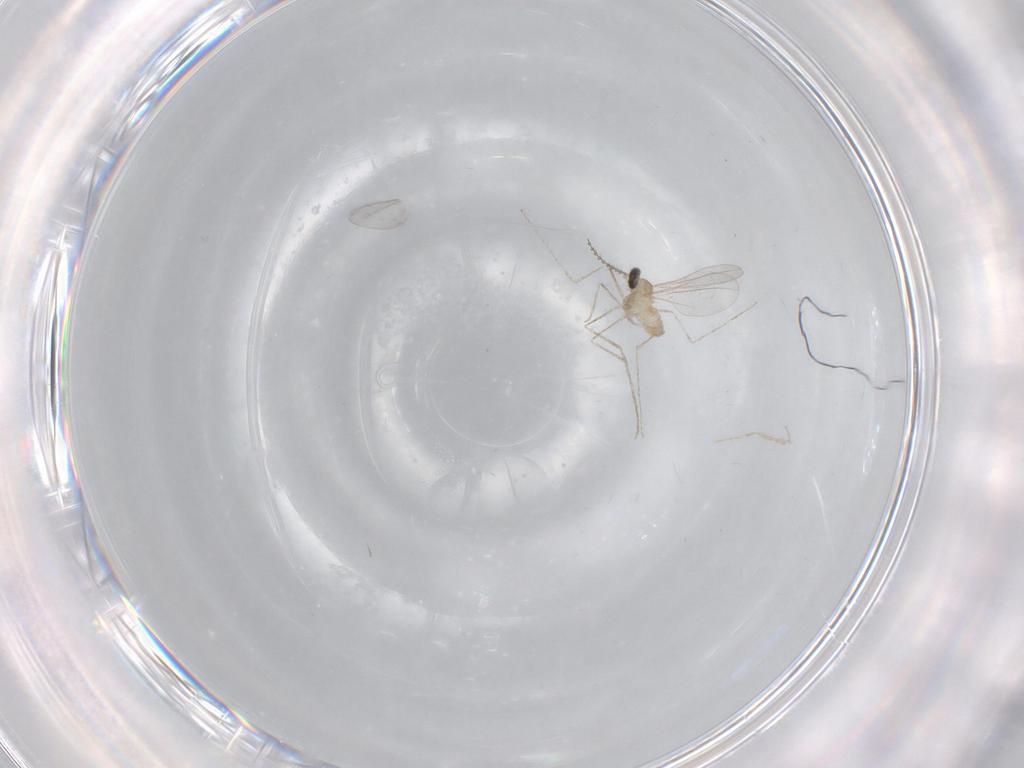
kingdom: Animalia
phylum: Arthropoda
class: Insecta
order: Diptera
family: Cecidomyiidae
